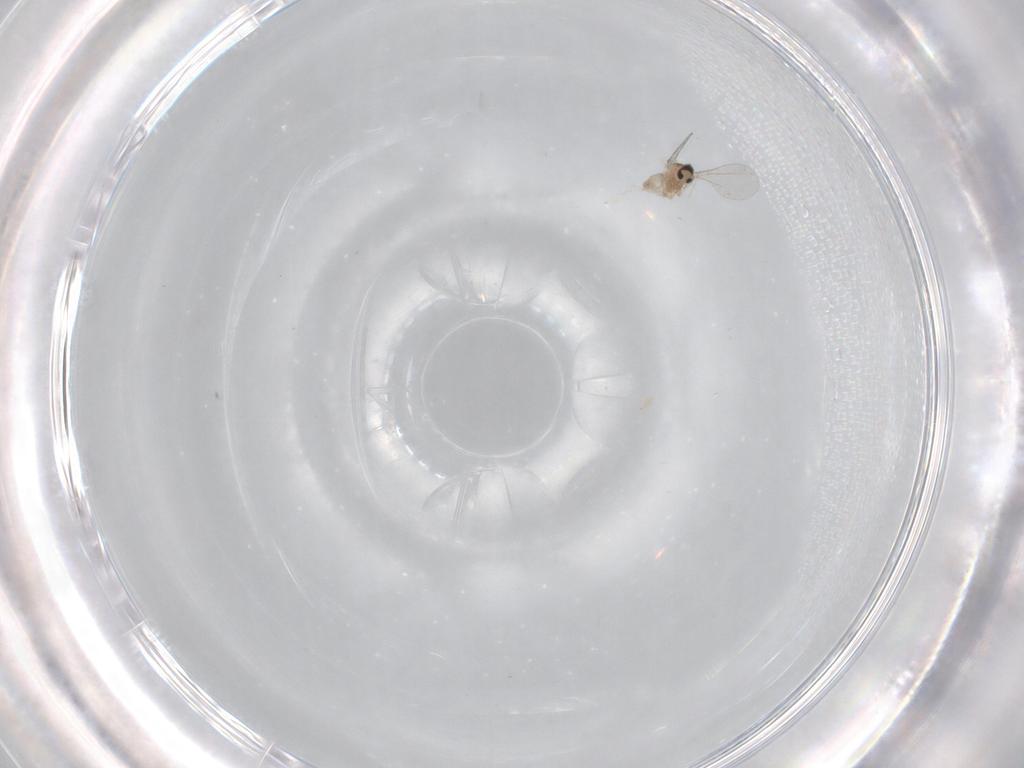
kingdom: Animalia
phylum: Arthropoda
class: Insecta
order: Diptera
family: Cecidomyiidae
